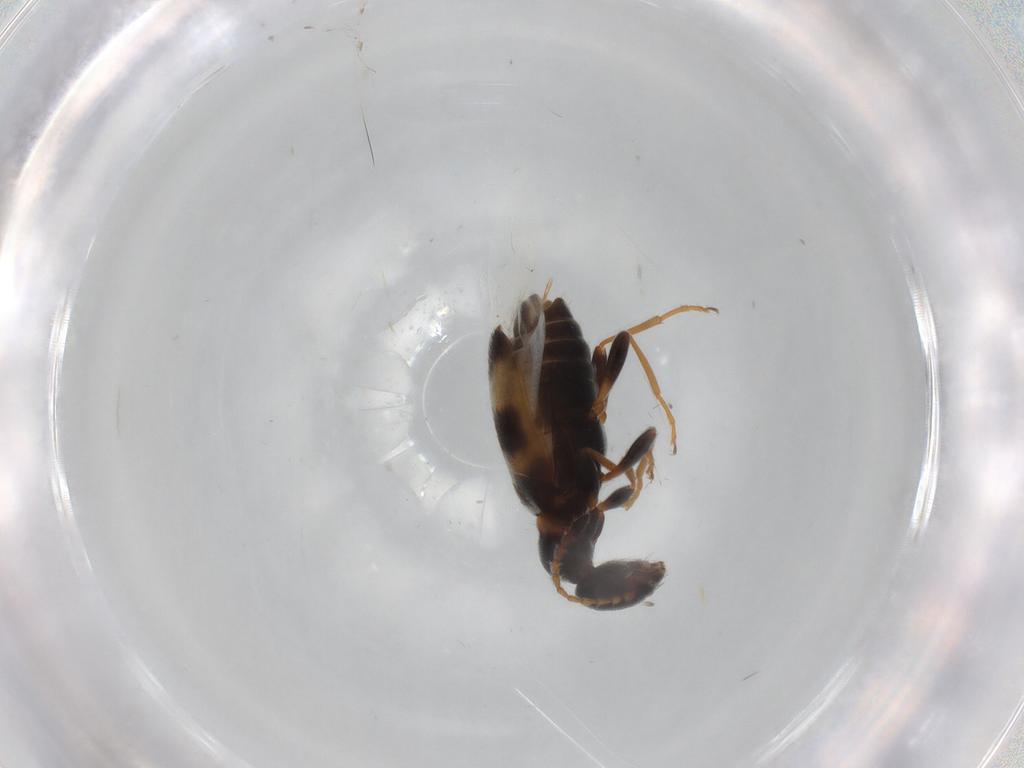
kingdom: Animalia
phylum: Arthropoda
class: Insecta
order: Coleoptera
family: Anthicidae
